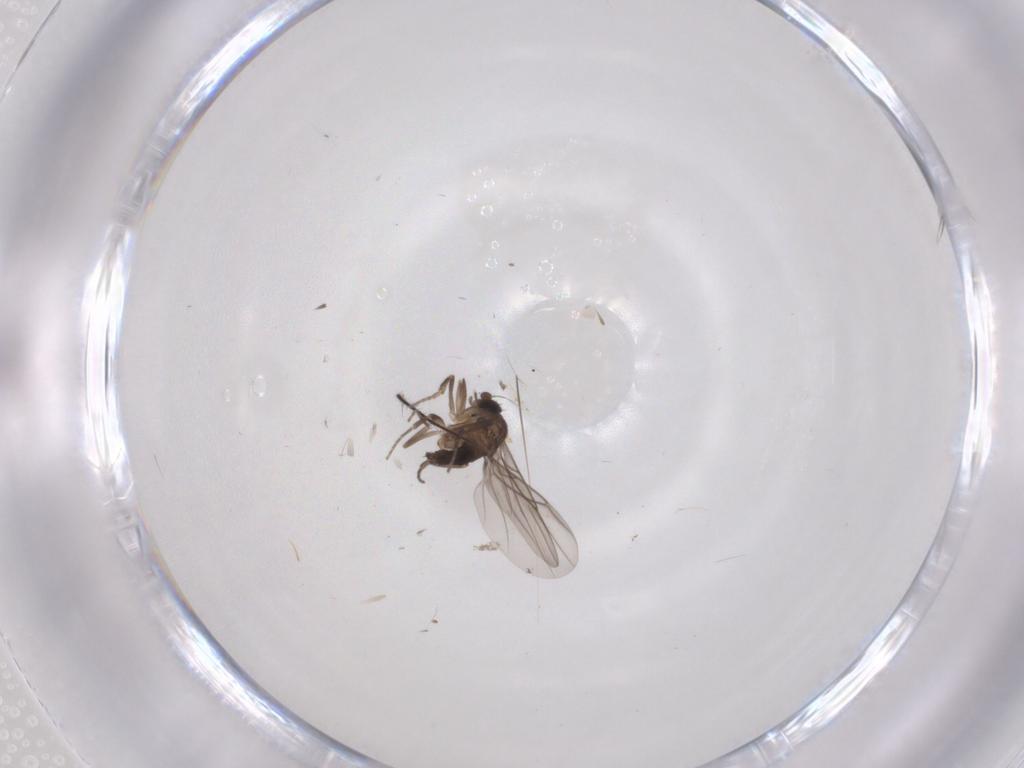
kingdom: Animalia
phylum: Arthropoda
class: Insecta
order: Diptera
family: Phoridae
